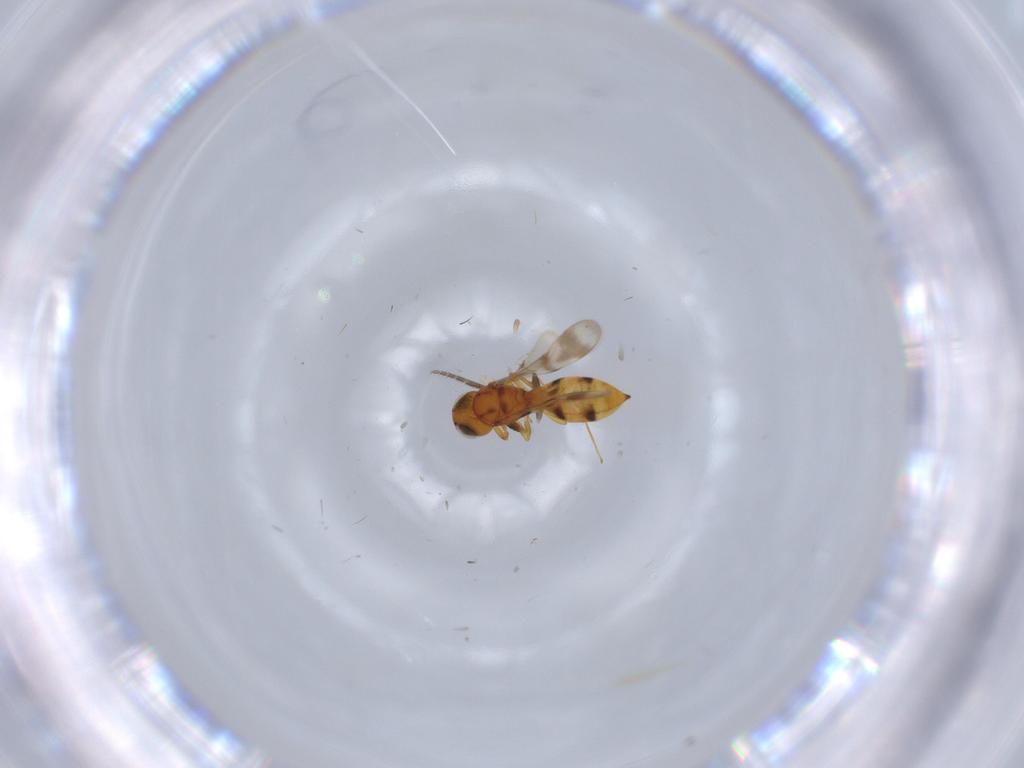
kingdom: Animalia
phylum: Arthropoda
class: Insecta
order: Hymenoptera
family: Scelionidae
